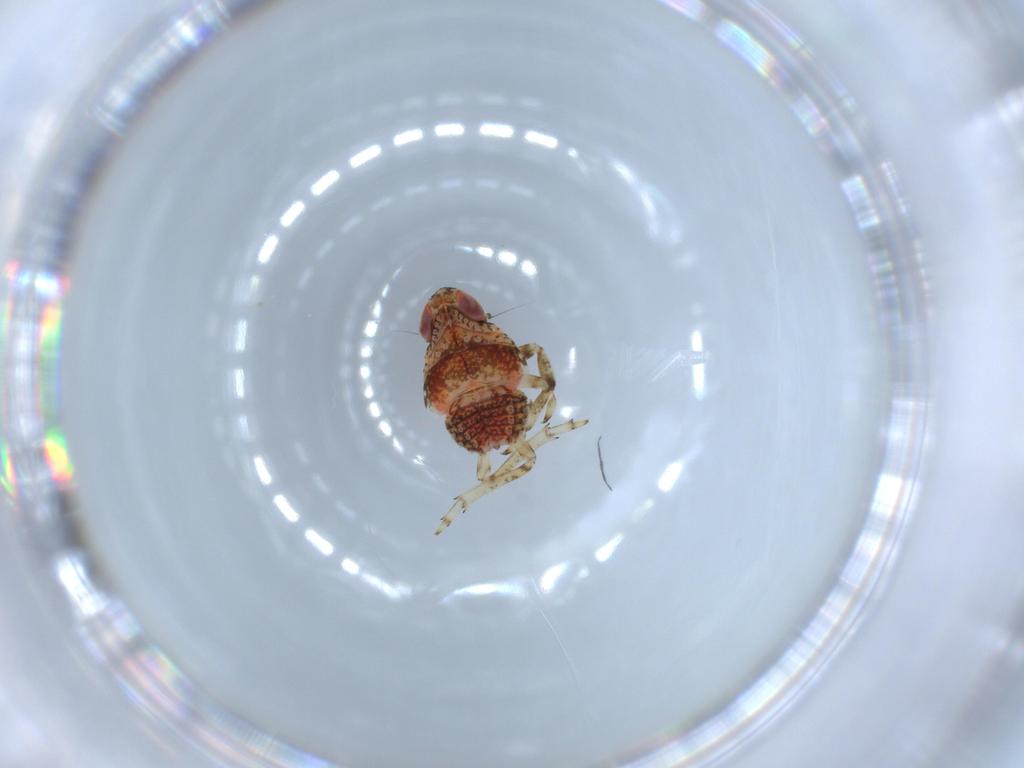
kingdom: Animalia
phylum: Arthropoda
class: Insecta
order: Hemiptera
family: Issidae
